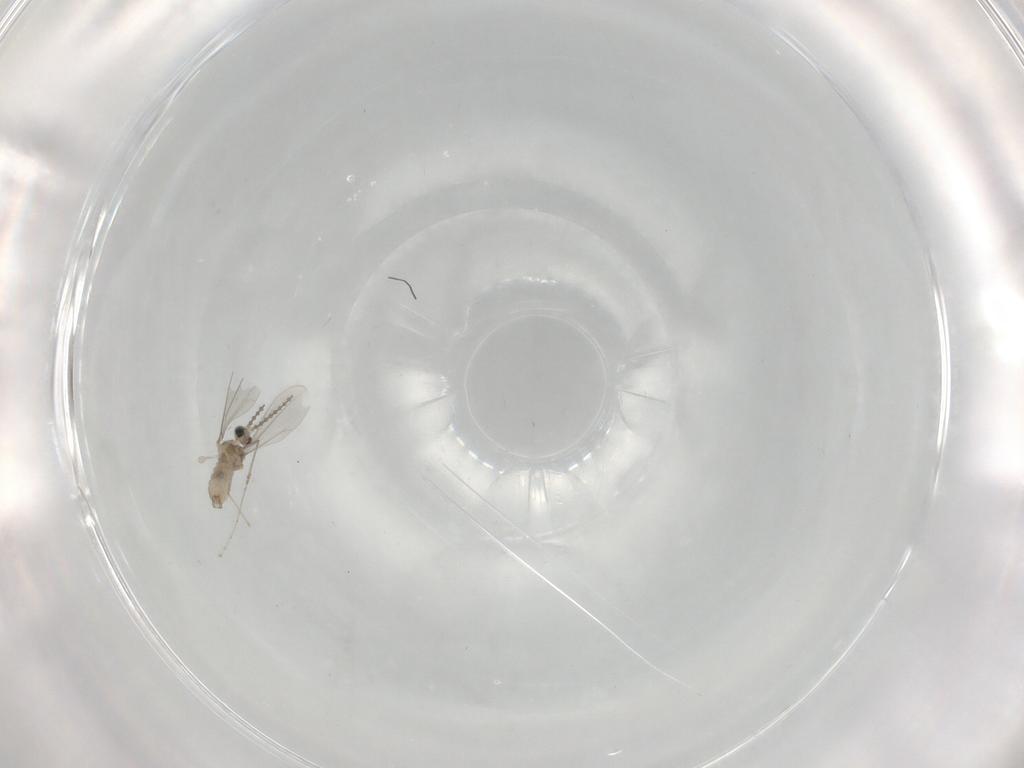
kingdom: Animalia
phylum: Arthropoda
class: Insecta
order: Diptera
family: Cecidomyiidae
